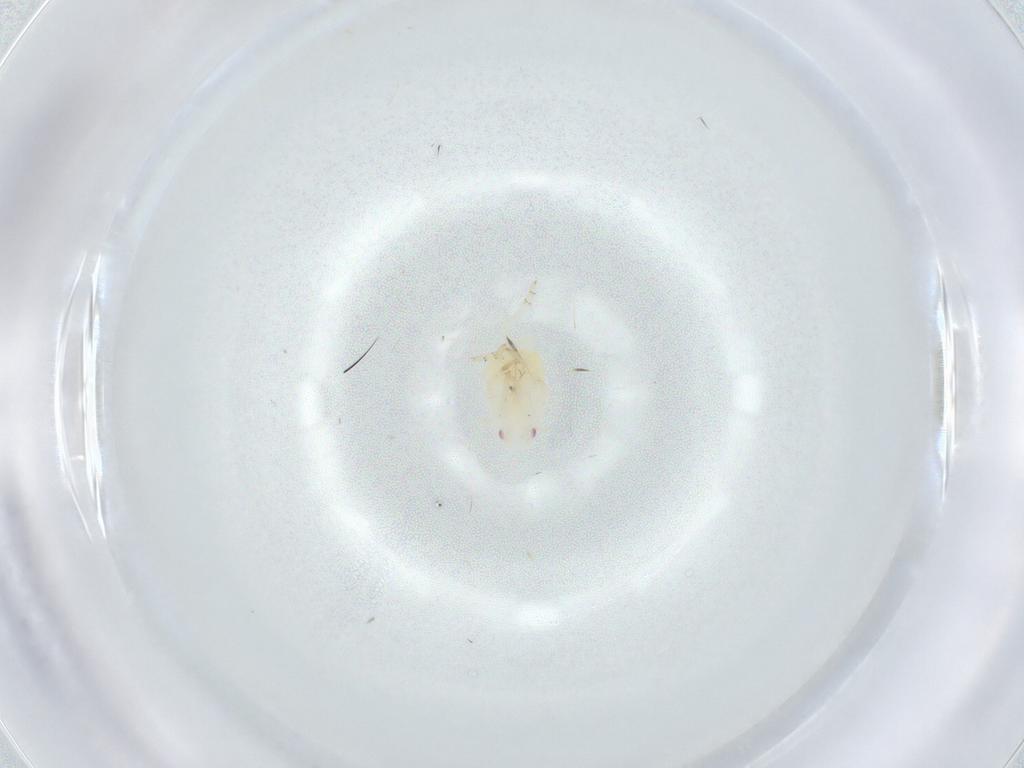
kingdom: Animalia
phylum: Arthropoda
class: Insecta
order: Hemiptera
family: Flatidae
